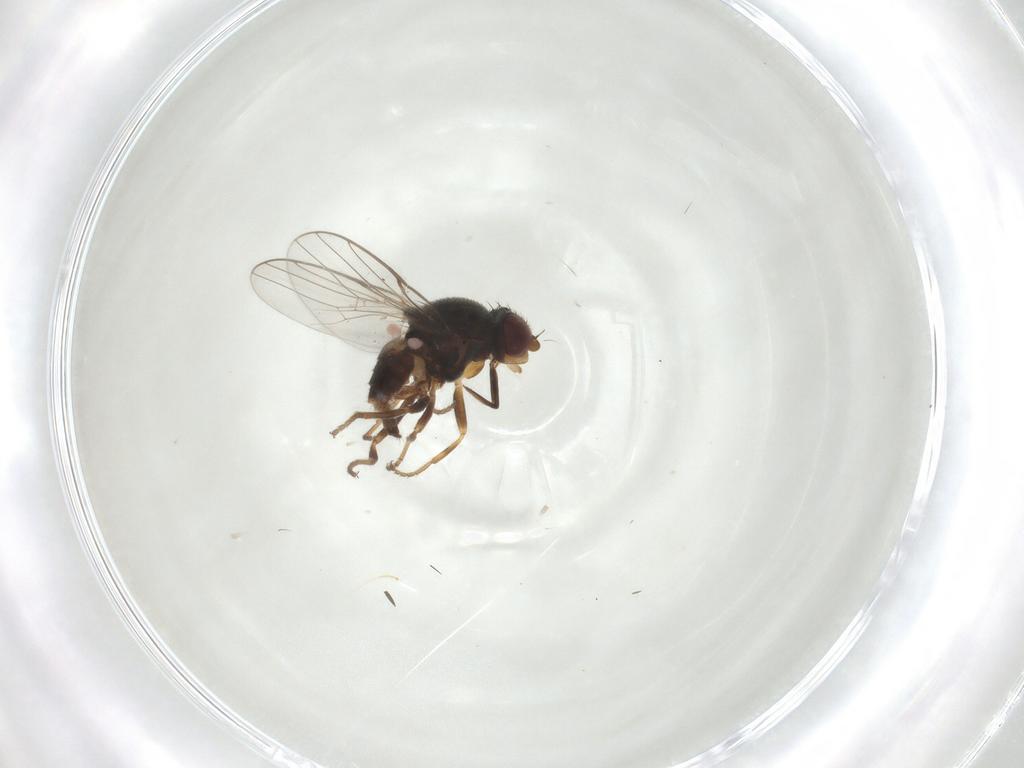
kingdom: Animalia
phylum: Arthropoda
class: Insecta
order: Diptera
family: Chloropidae
